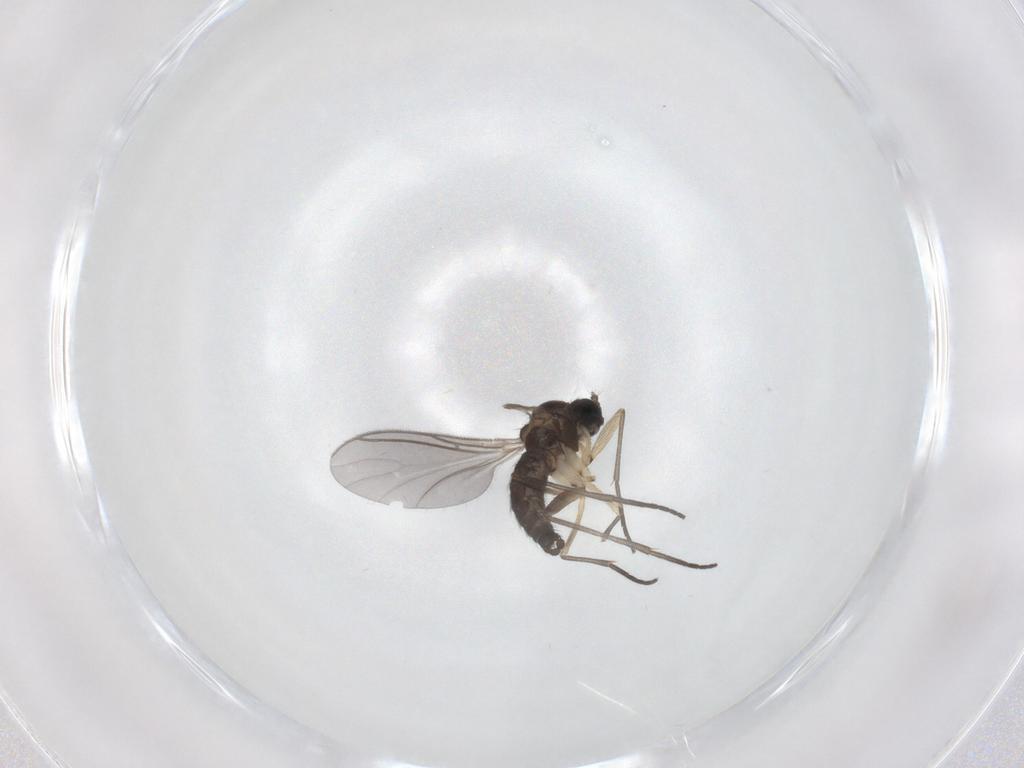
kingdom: Animalia
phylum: Arthropoda
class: Insecta
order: Diptera
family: Sciaridae
